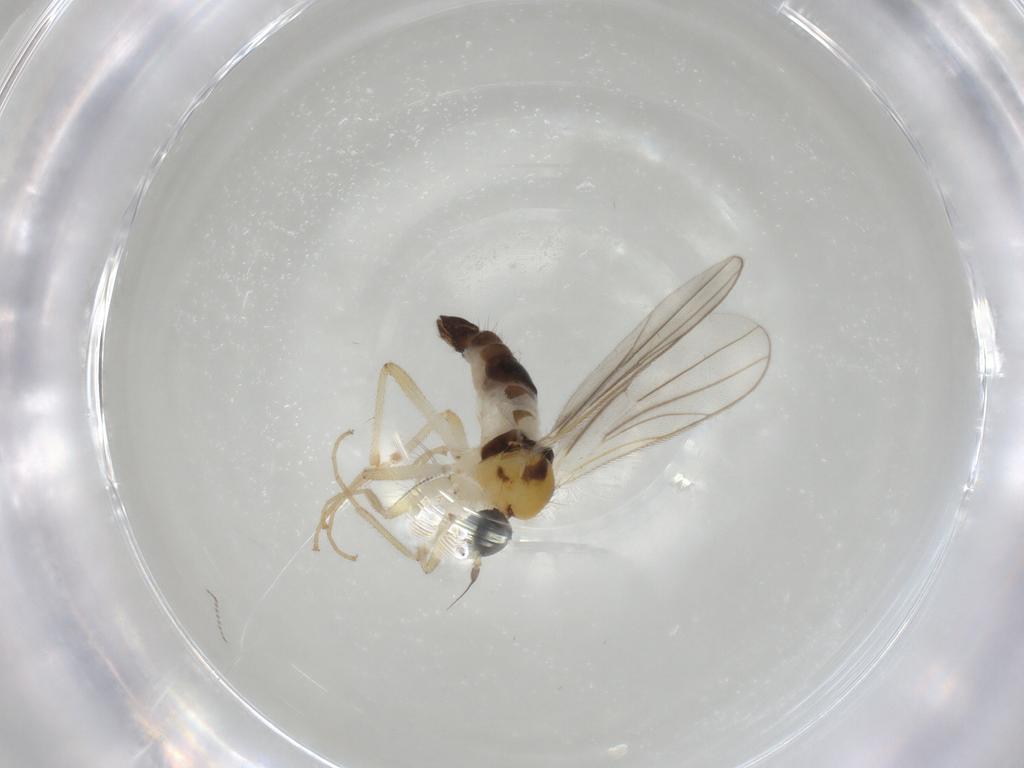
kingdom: Animalia
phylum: Arthropoda
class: Insecta
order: Diptera
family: Hybotidae
